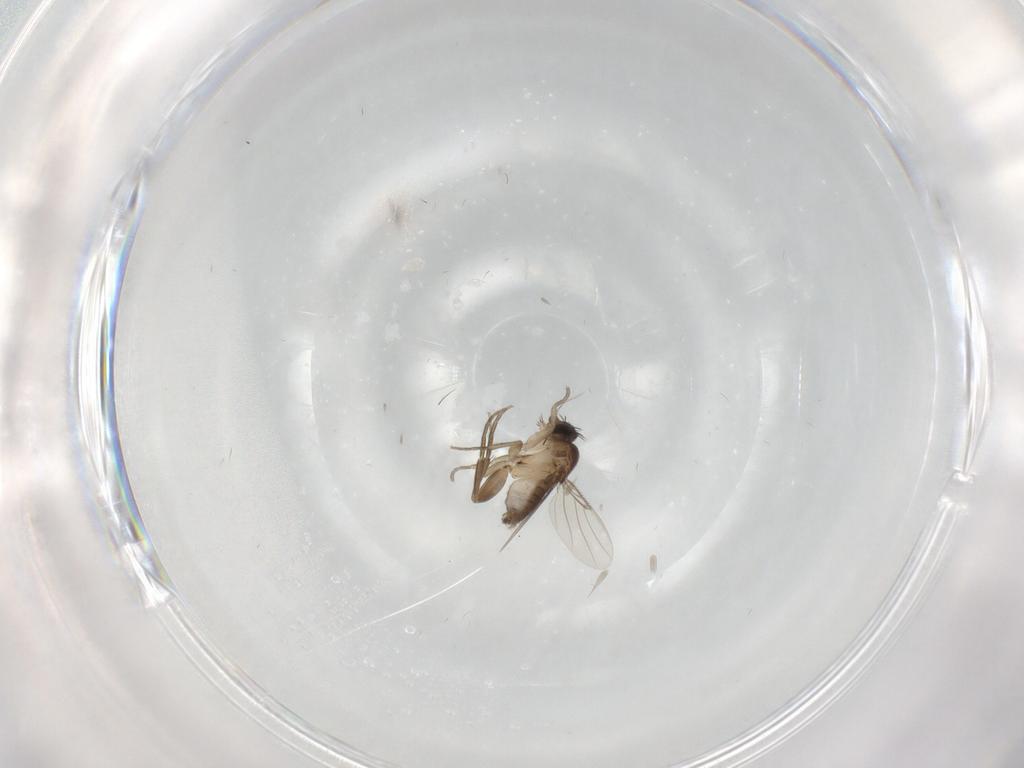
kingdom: Animalia
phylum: Arthropoda
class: Insecta
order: Diptera
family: Phoridae
